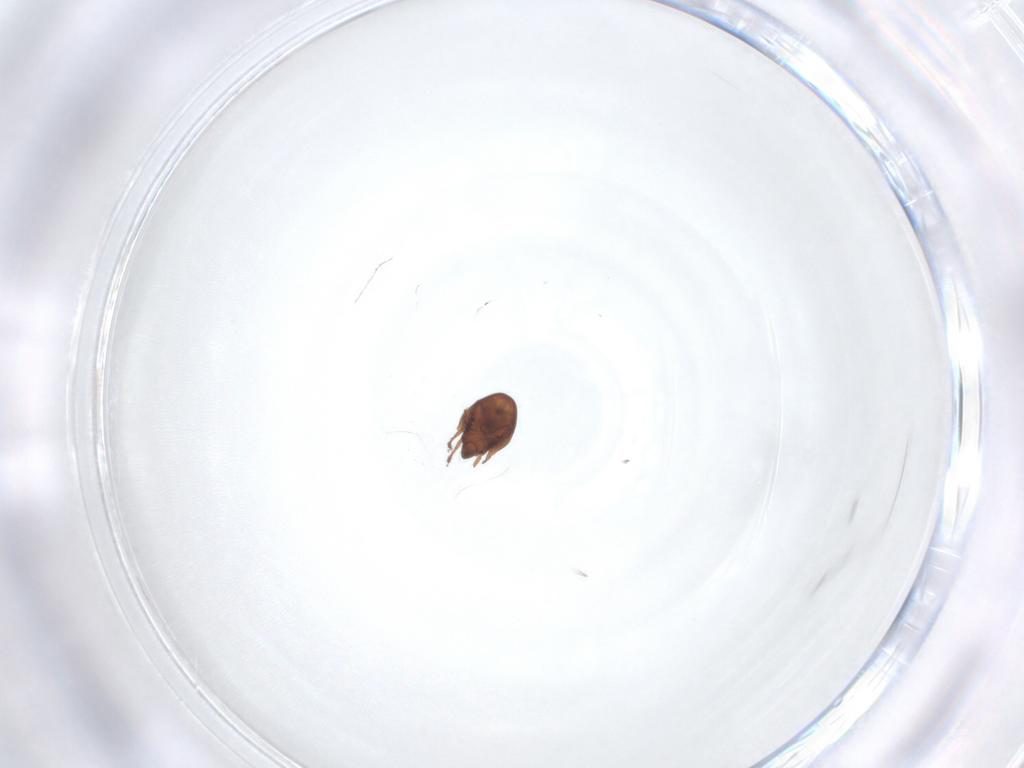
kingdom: Animalia
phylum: Arthropoda
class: Arachnida
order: Sarcoptiformes
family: Ceratozetidae
